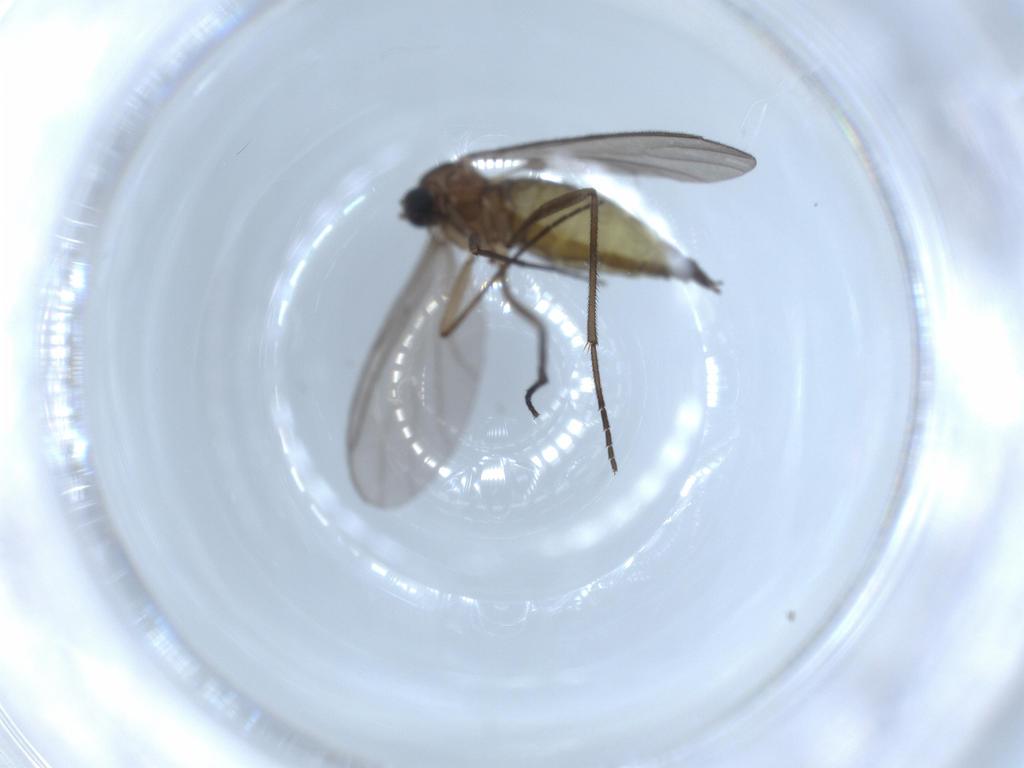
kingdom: Animalia
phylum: Arthropoda
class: Insecta
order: Diptera
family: Sciaridae
